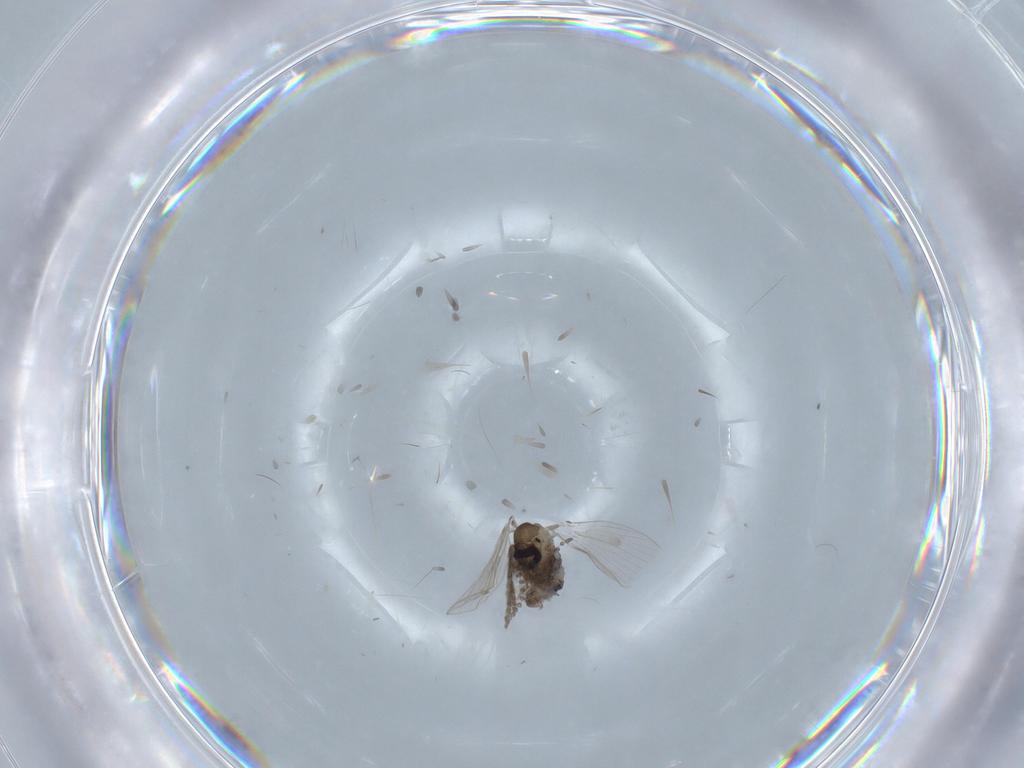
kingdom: Animalia
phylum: Arthropoda
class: Insecta
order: Diptera
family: Psychodidae
